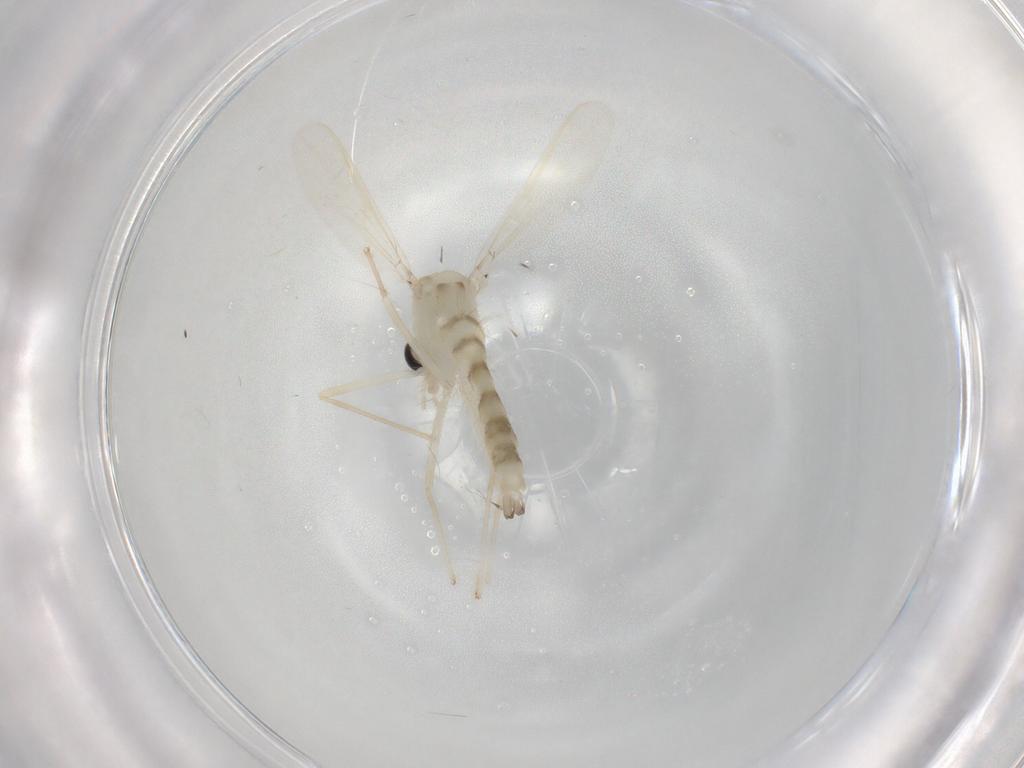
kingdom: Animalia
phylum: Arthropoda
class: Insecta
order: Diptera
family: Chironomidae
